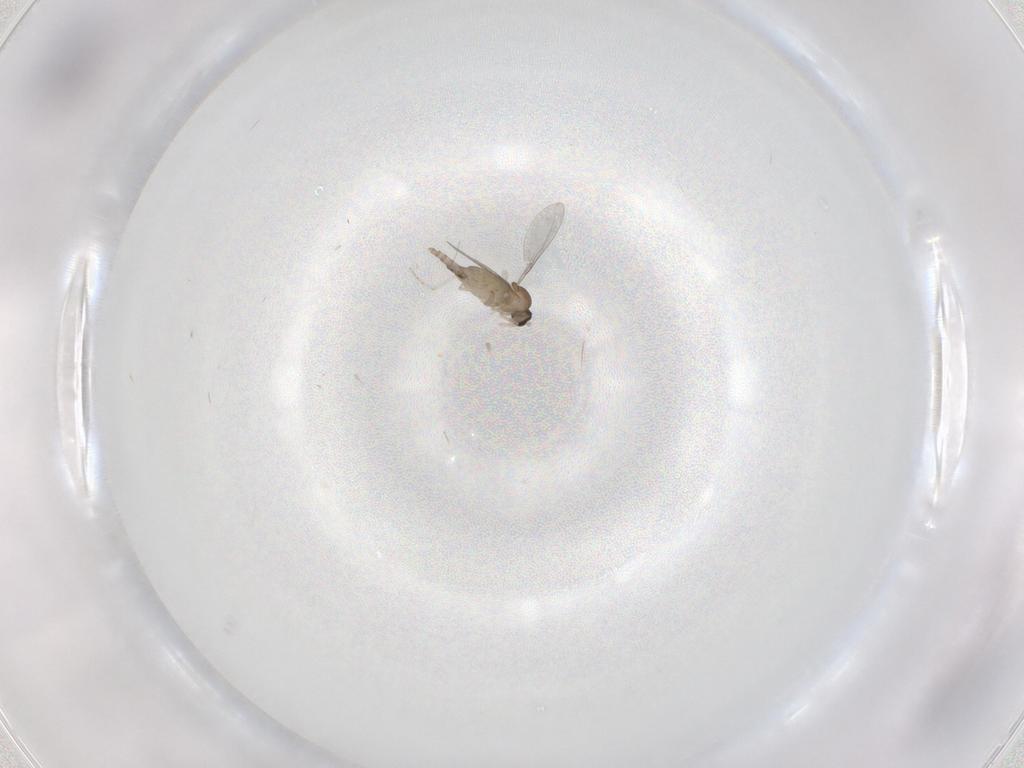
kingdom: Animalia
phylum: Arthropoda
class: Insecta
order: Diptera
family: Cecidomyiidae
